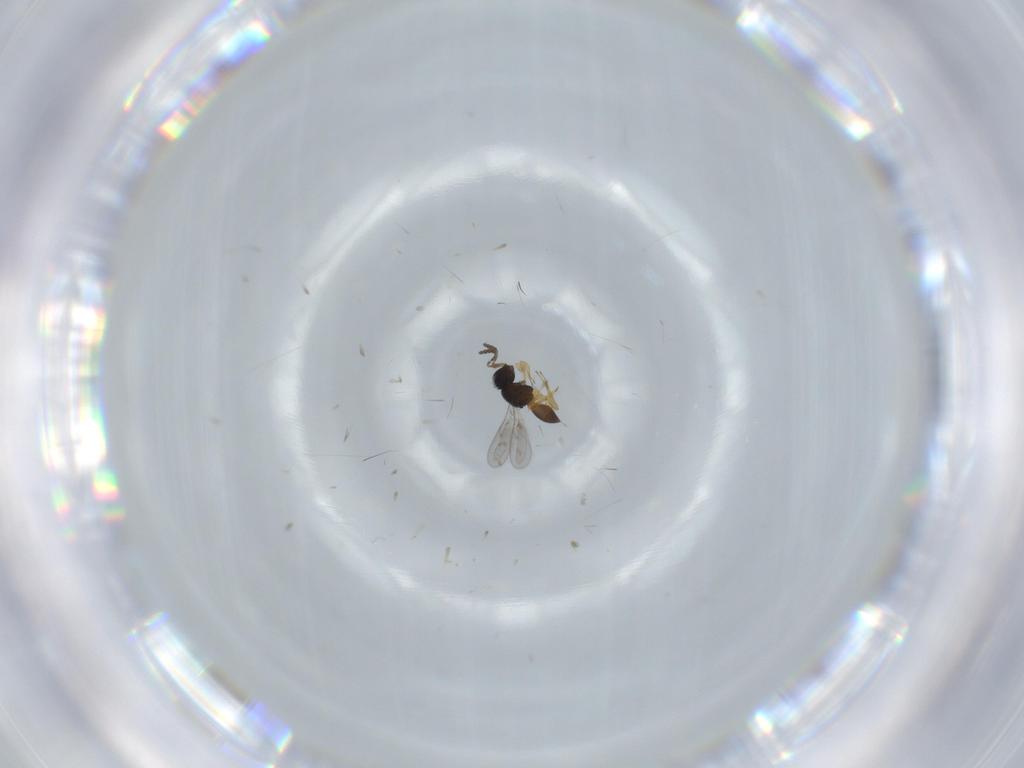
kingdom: Animalia
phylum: Arthropoda
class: Insecta
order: Hymenoptera
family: Scelionidae
